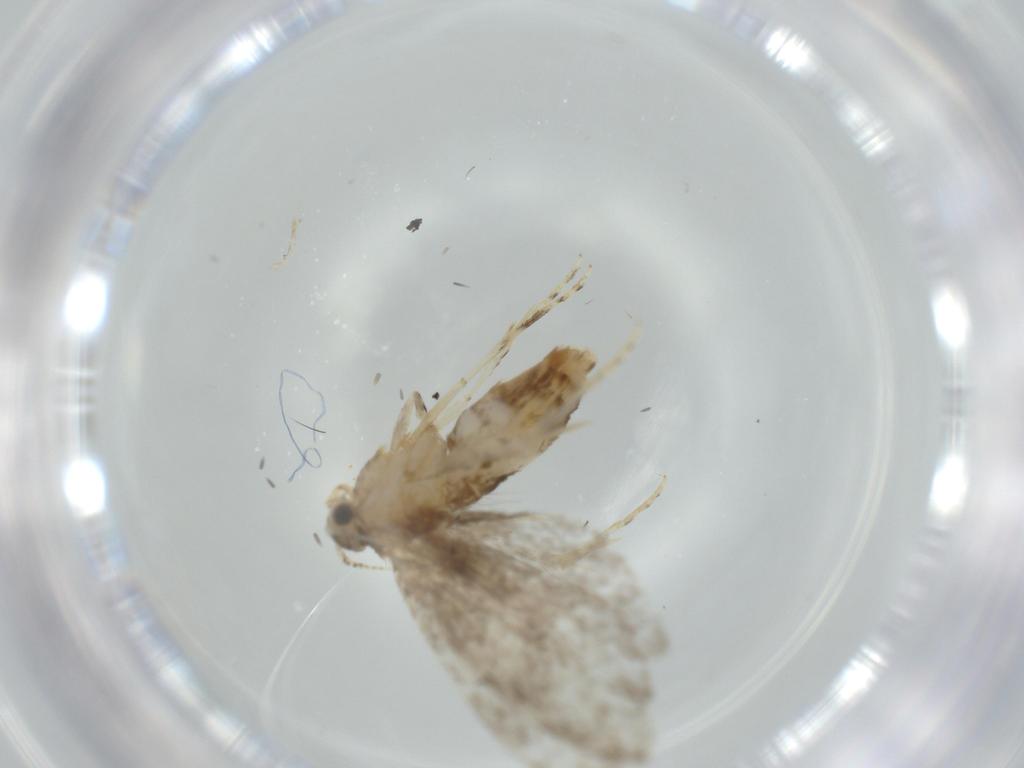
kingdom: Animalia
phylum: Arthropoda
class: Insecta
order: Lepidoptera
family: Tineidae
